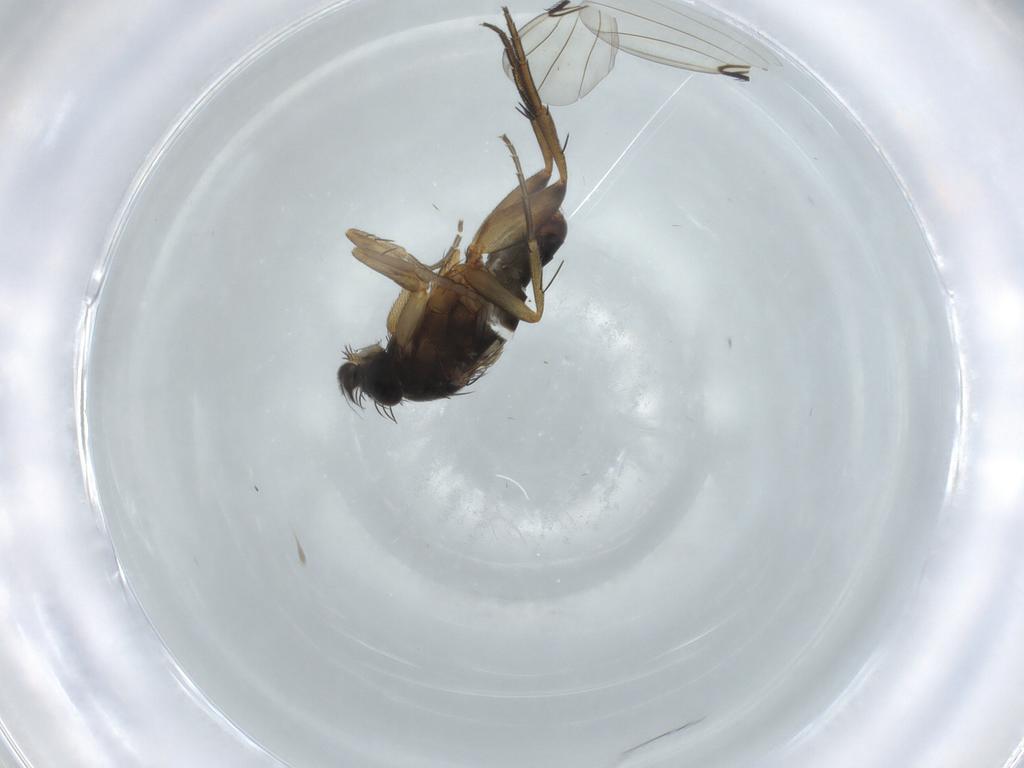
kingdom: Animalia
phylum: Arthropoda
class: Insecta
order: Diptera
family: Phoridae
